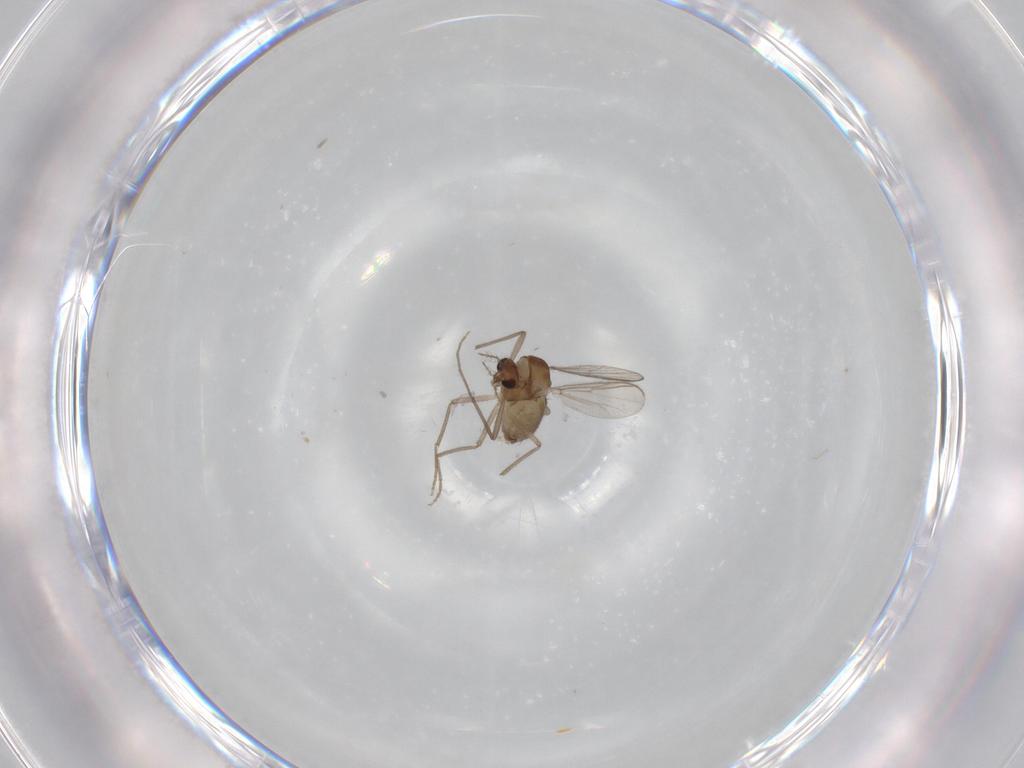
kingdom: Animalia
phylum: Arthropoda
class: Insecta
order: Diptera
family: Chironomidae
